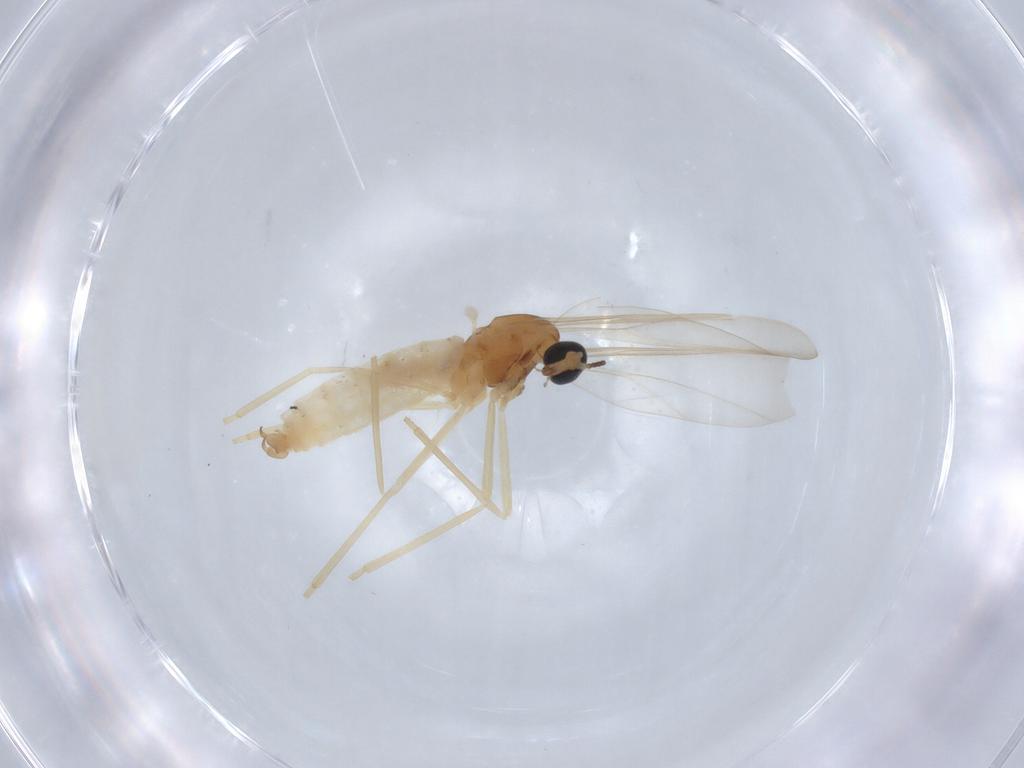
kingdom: Animalia
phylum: Arthropoda
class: Insecta
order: Diptera
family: Cecidomyiidae
